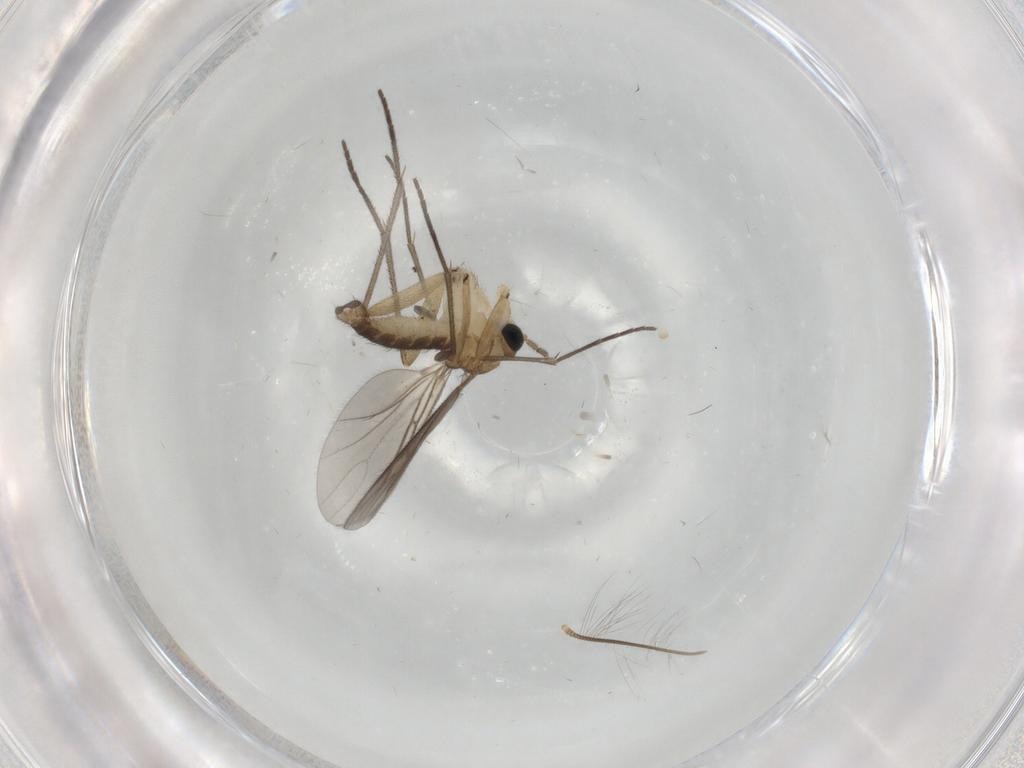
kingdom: Animalia
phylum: Arthropoda
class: Insecta
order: Diptera
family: Sciaridae
